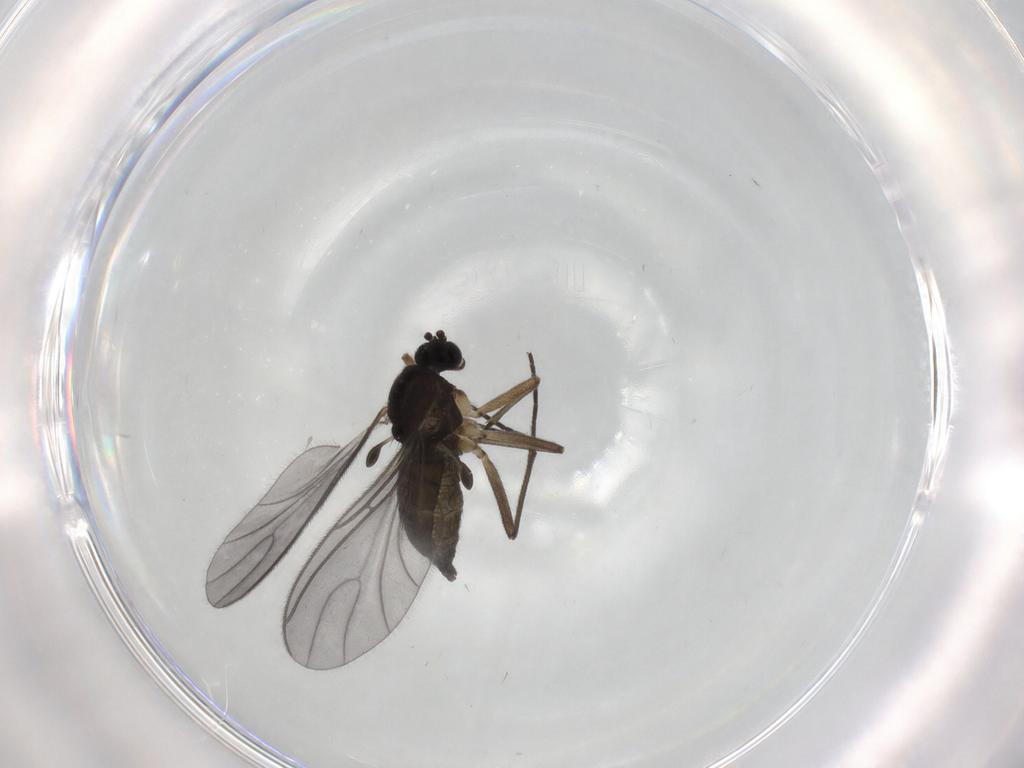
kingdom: Animalia
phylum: Arthropoda
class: Insecta
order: Diptera
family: Sciaridae
